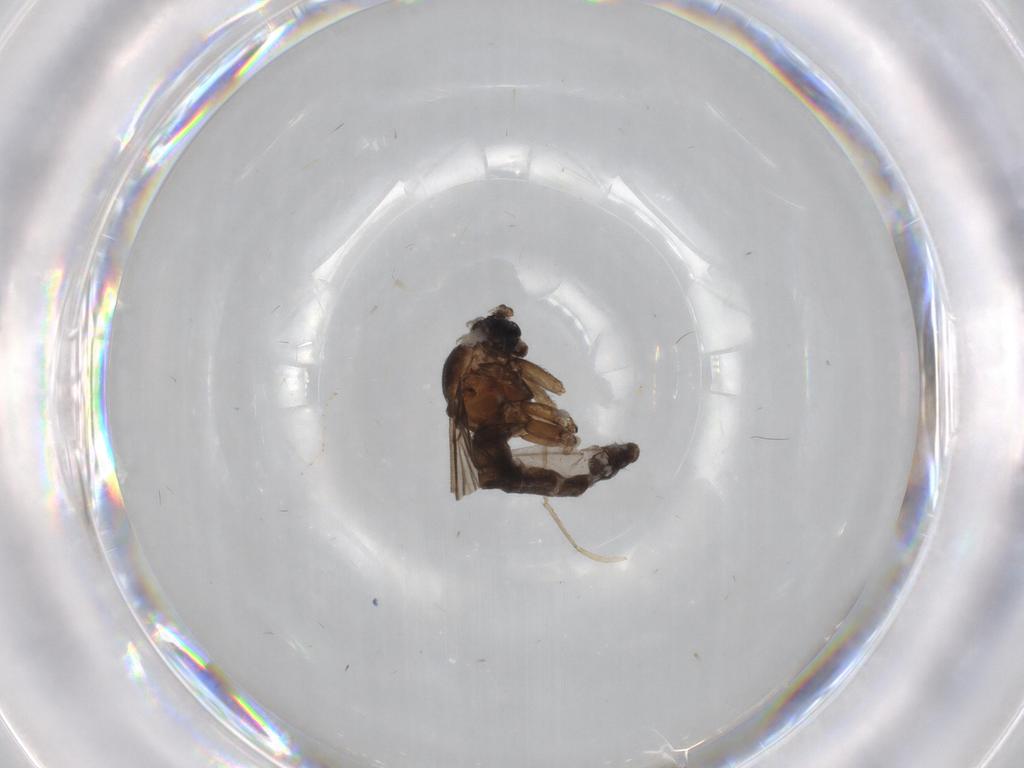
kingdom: Animalia
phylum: Arthropoda
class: Insecta
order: Diptera
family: Sciaridae
